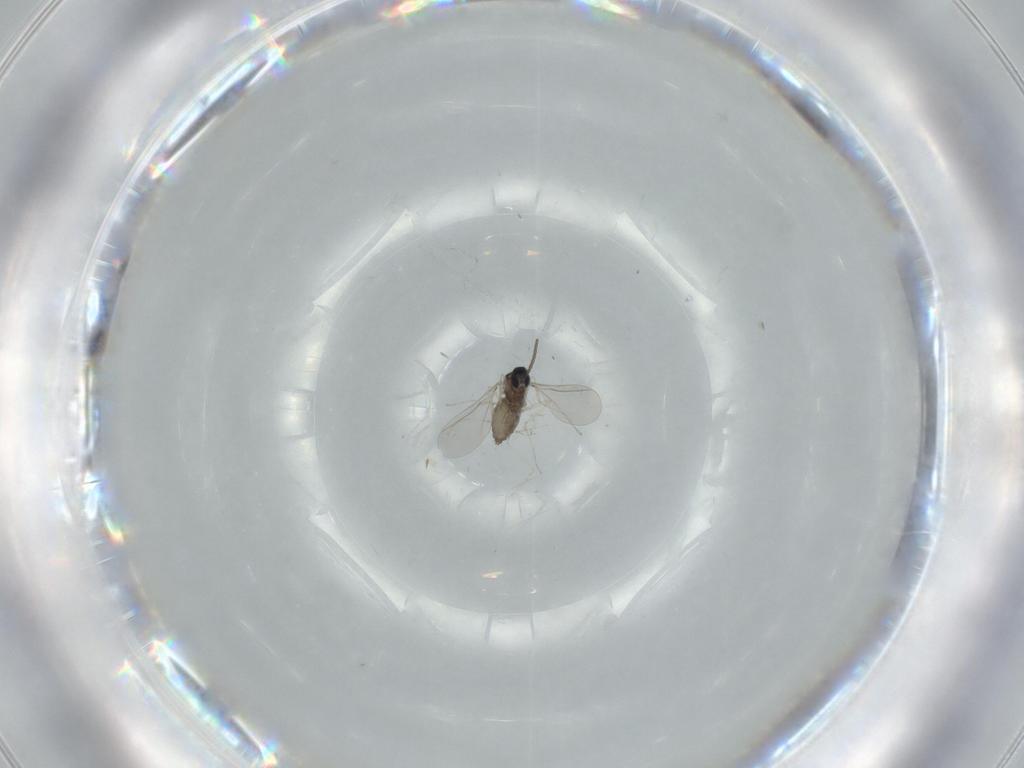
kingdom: Animalia
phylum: Arthropoda
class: Insecta
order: Diptera
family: Cecidomyiidae
